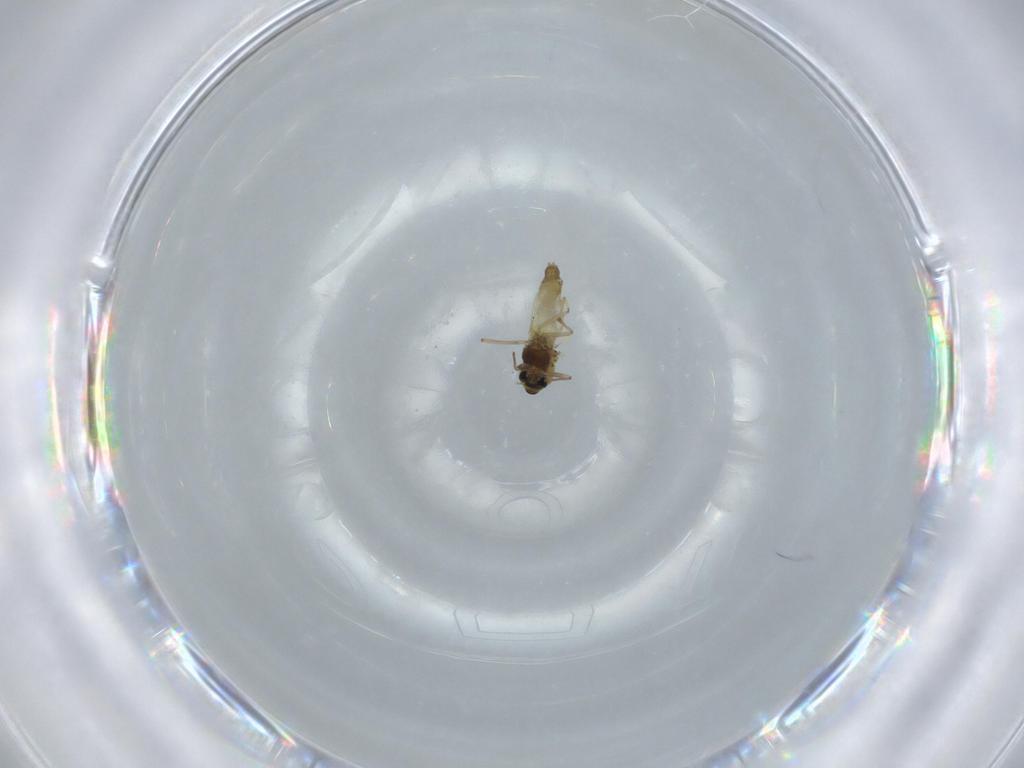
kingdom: Animalia
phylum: Arthropoda
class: Insecta
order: Diptera
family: Chironomidae
